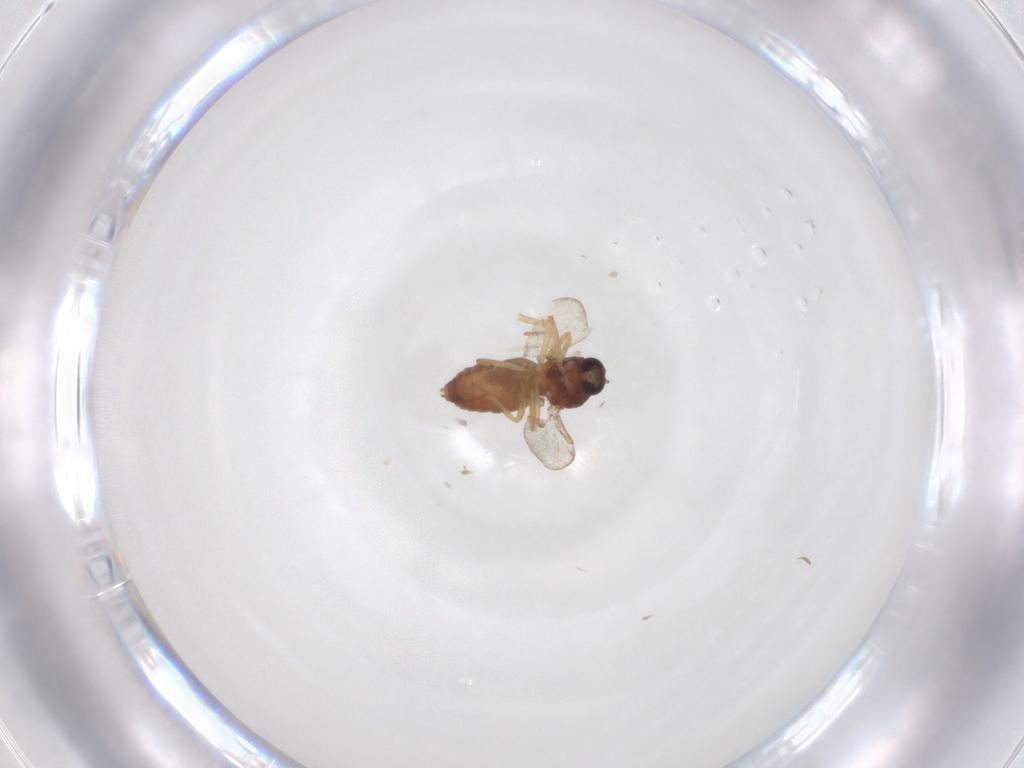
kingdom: Animalia
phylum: Arthropoda
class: Insecta
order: Diptera
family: Ceratopogonidae
